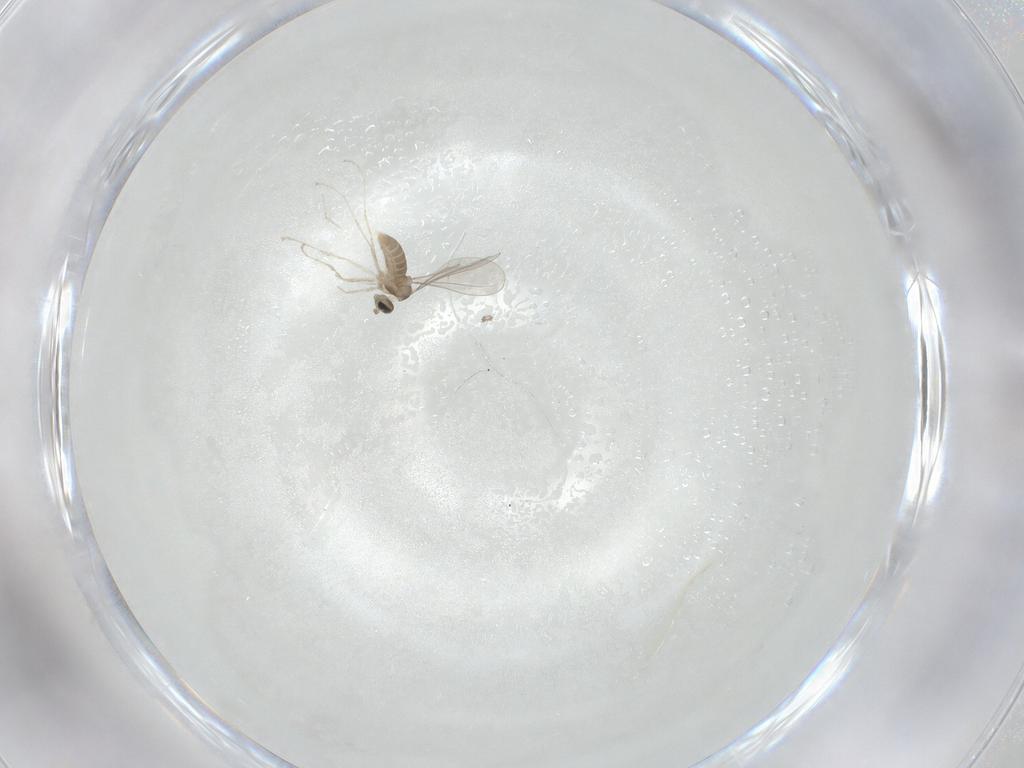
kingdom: Animalia
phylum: Arthropoda
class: Insecta
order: Diptera
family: Cecidomyiidae
